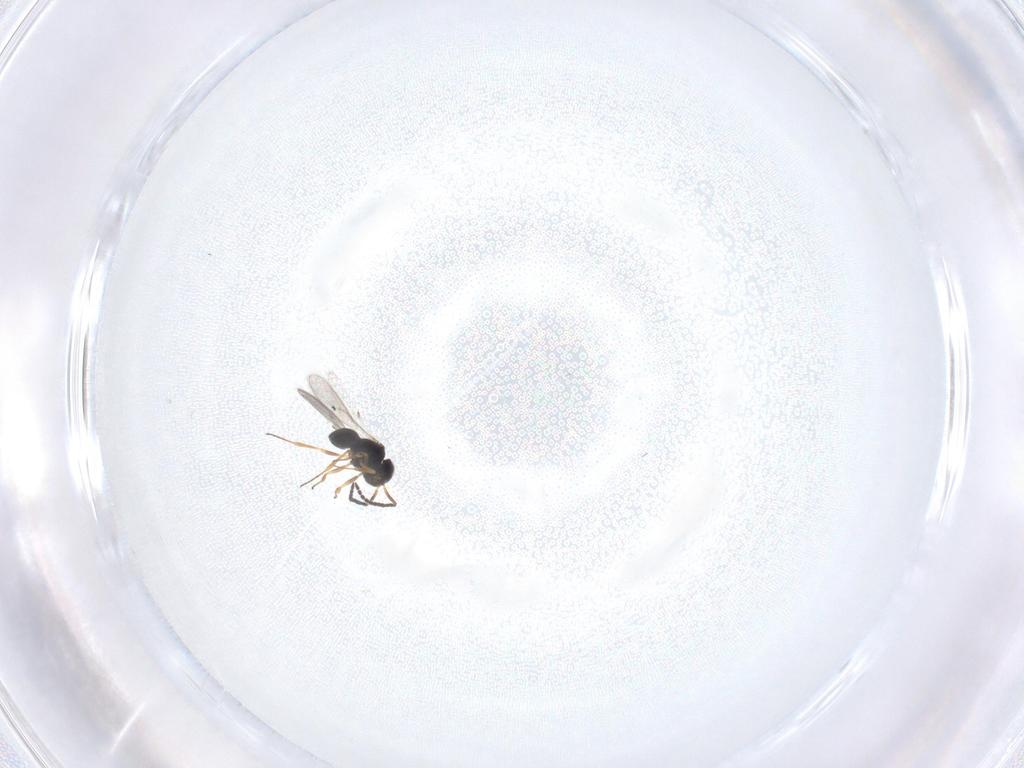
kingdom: Animalia
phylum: Arthropoda
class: Insecta
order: Hymenoptera
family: Scelionidae
